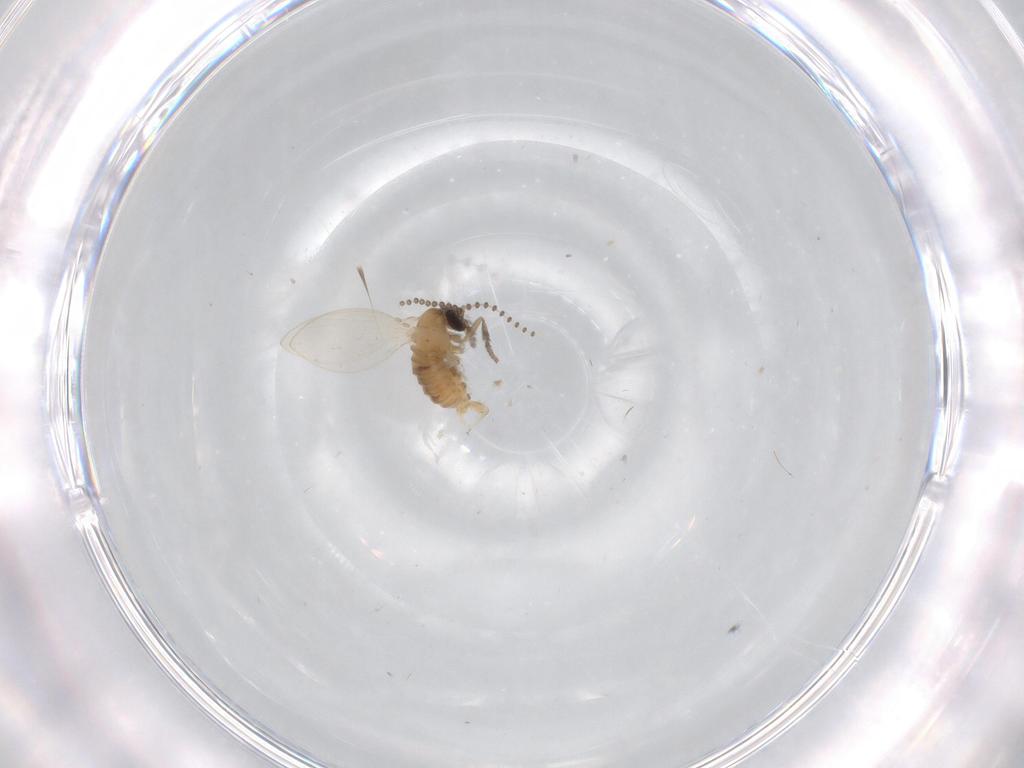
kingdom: Animalia
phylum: Arthropoda
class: Insecta
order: Diptera
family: Psychodidae
